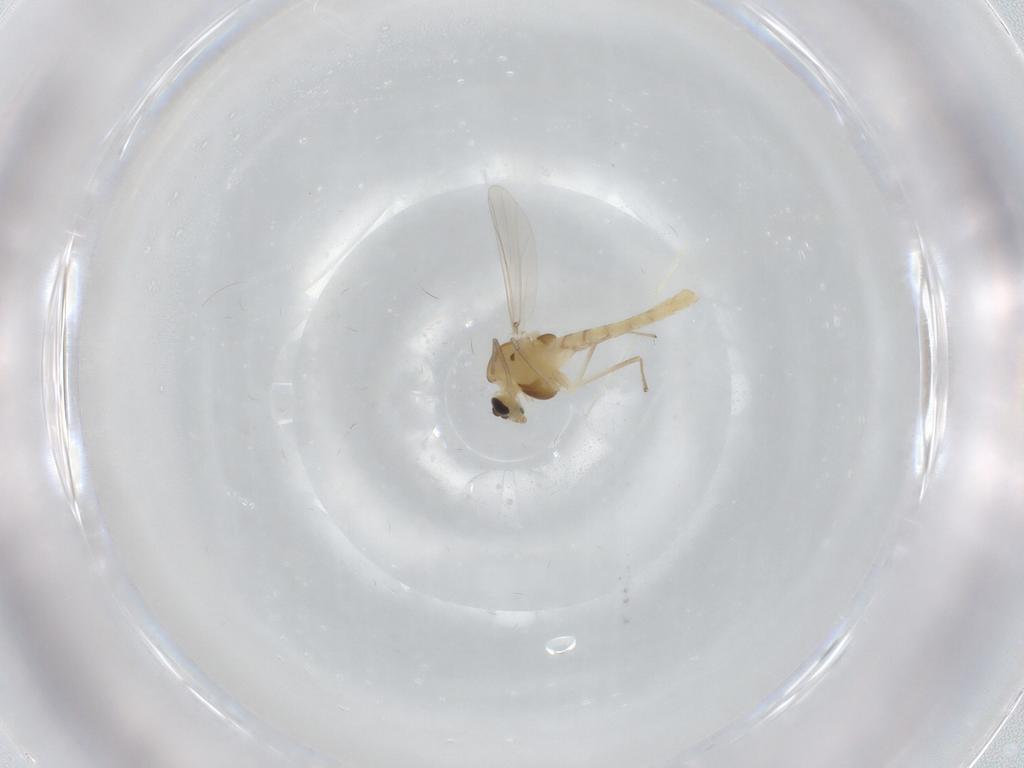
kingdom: Animalia
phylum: Arthropoda
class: Insecta
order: Diptera
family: Chironomidae
